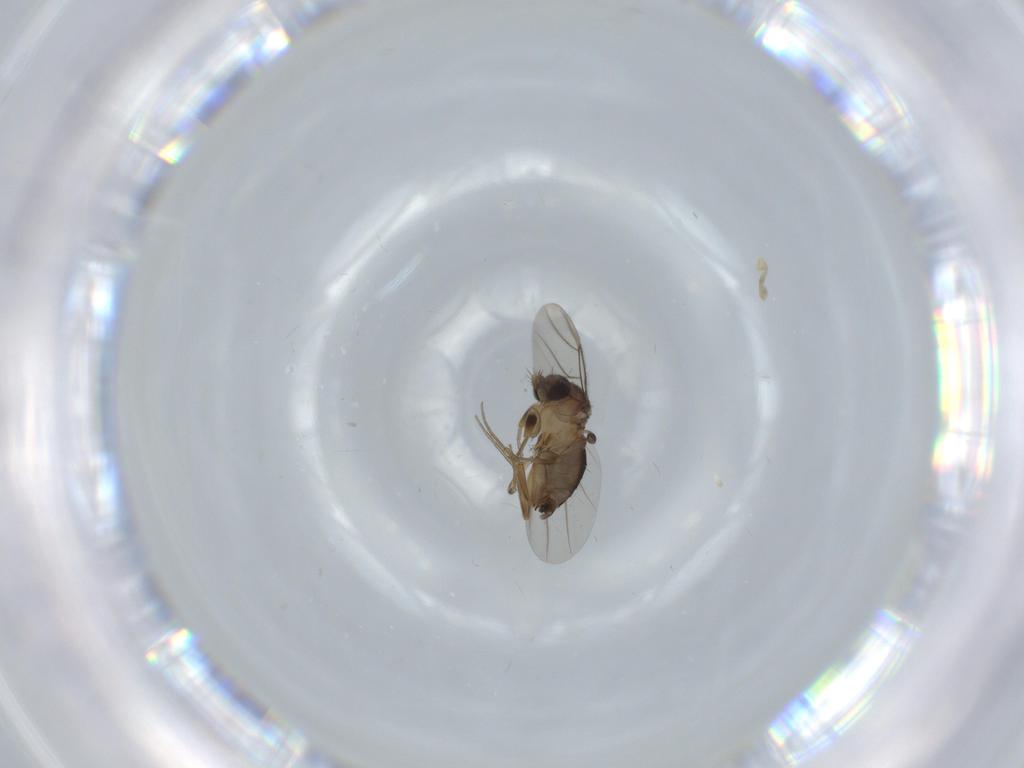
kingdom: Animalia
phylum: Arthropoda
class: Insecta
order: Diptera
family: Phoridae
